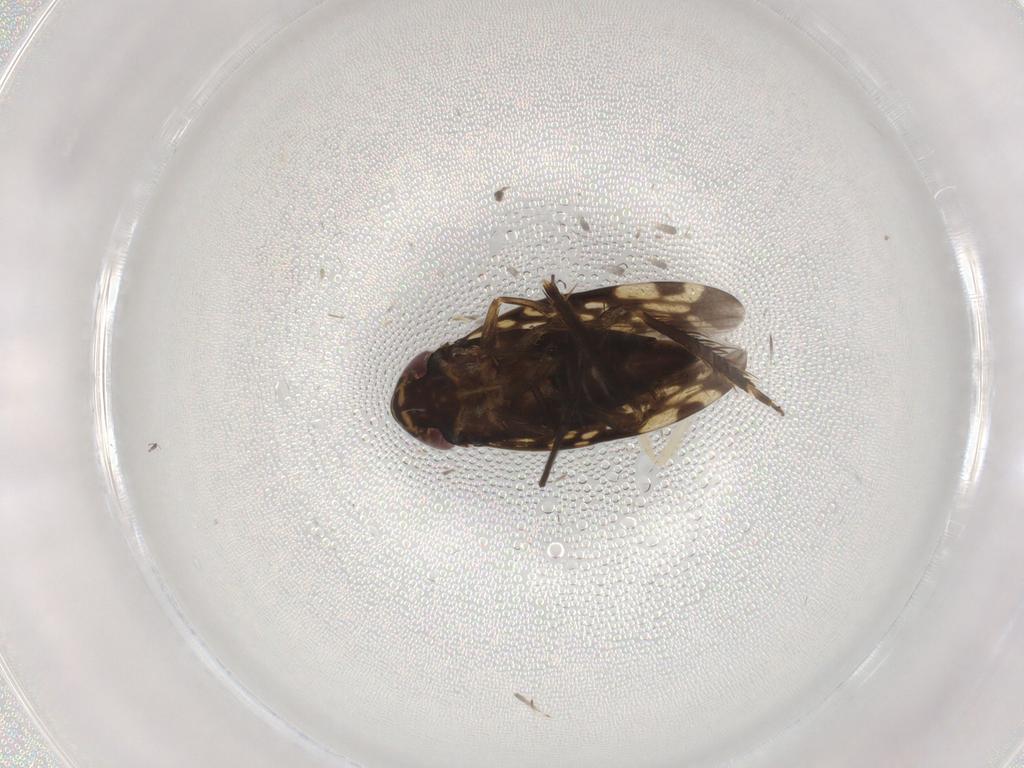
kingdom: Animalia
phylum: Arthropoda
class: Insecta
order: Hemiptera
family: Cicadellidae
